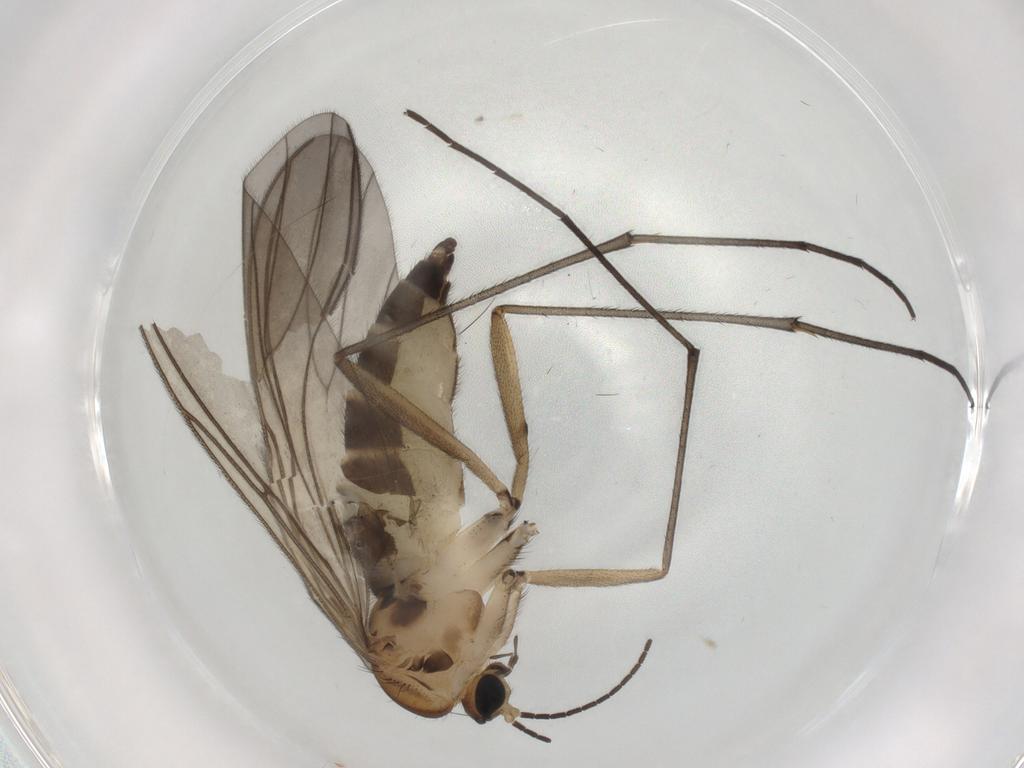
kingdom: Animalia
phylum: Arthropoda
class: Insecta
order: Diptera
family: Sciaridae
